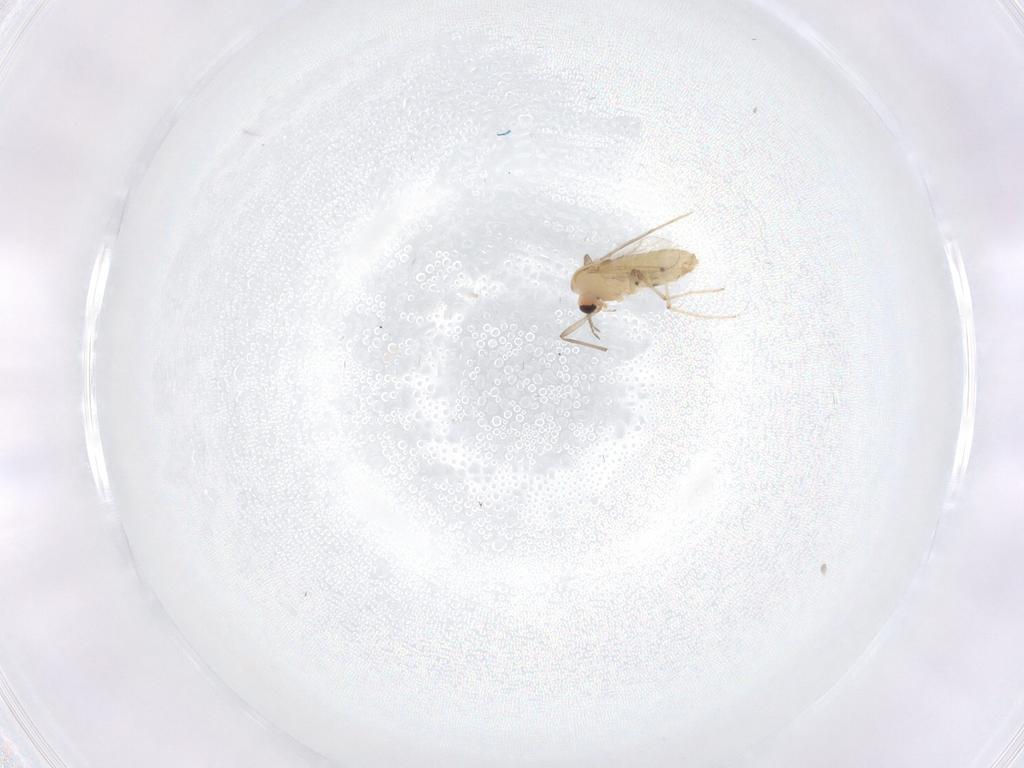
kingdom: Animalia
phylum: Arthropoda
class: Insecta
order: Diptera
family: Chironomidae
